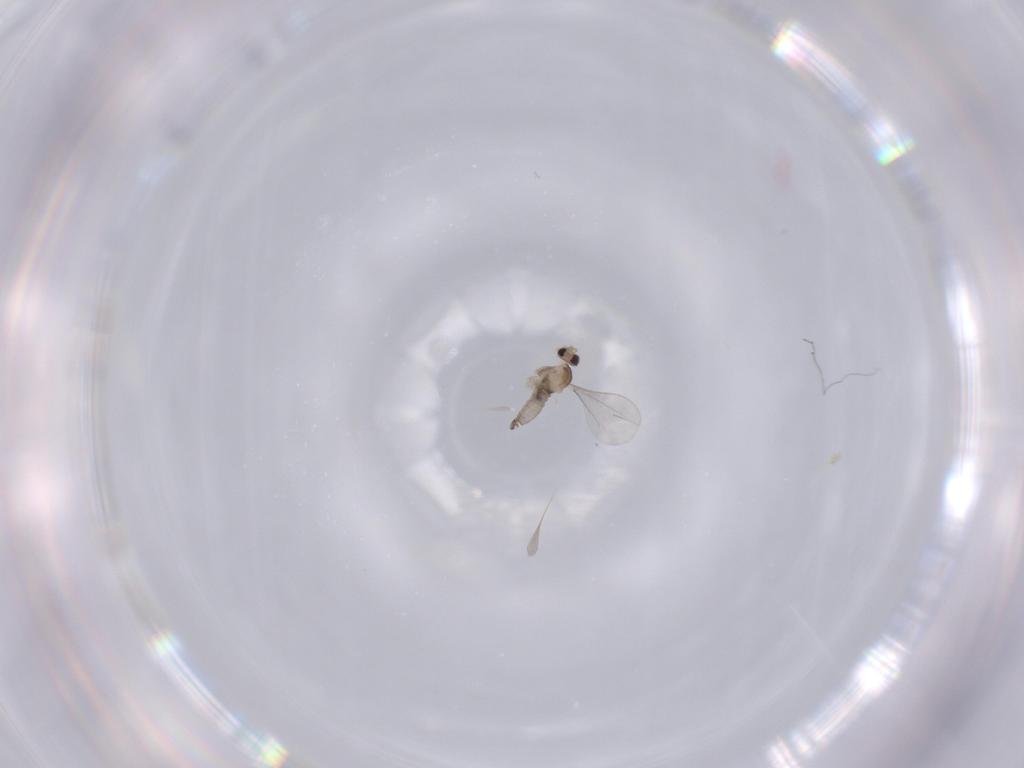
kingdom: Animalia
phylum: Arthropoda
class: Insecta
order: Diptera
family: Cecidomyiidae
